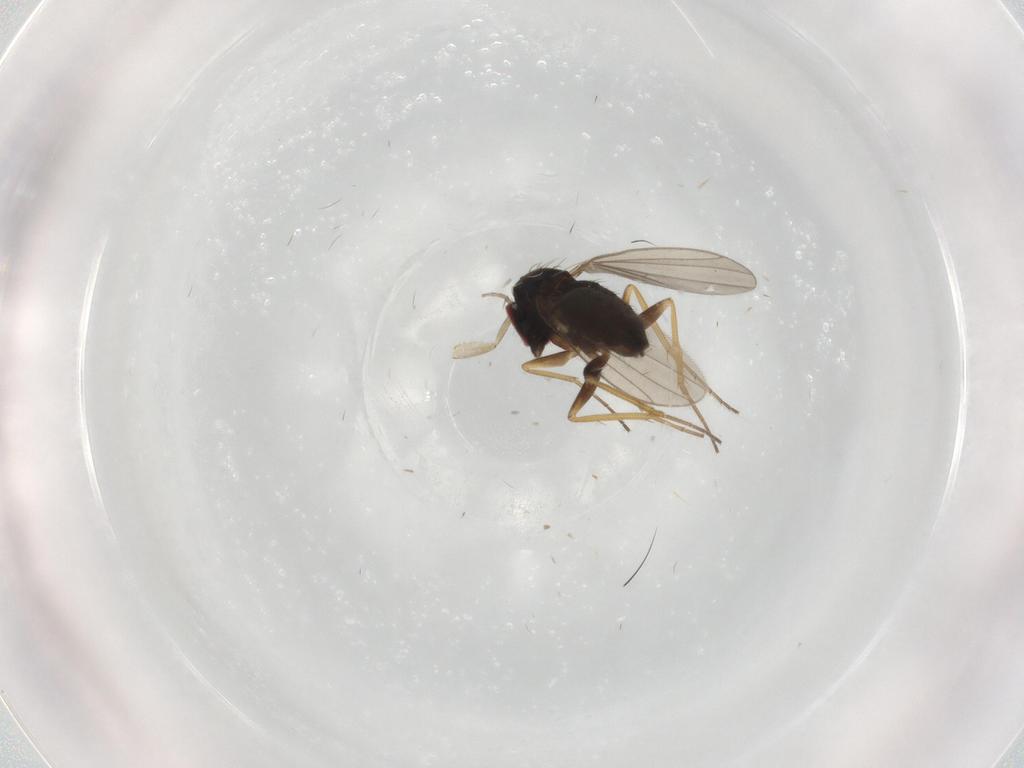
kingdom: Animalia
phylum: Arthropoda
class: Insecta
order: Diptera
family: Phoridae
